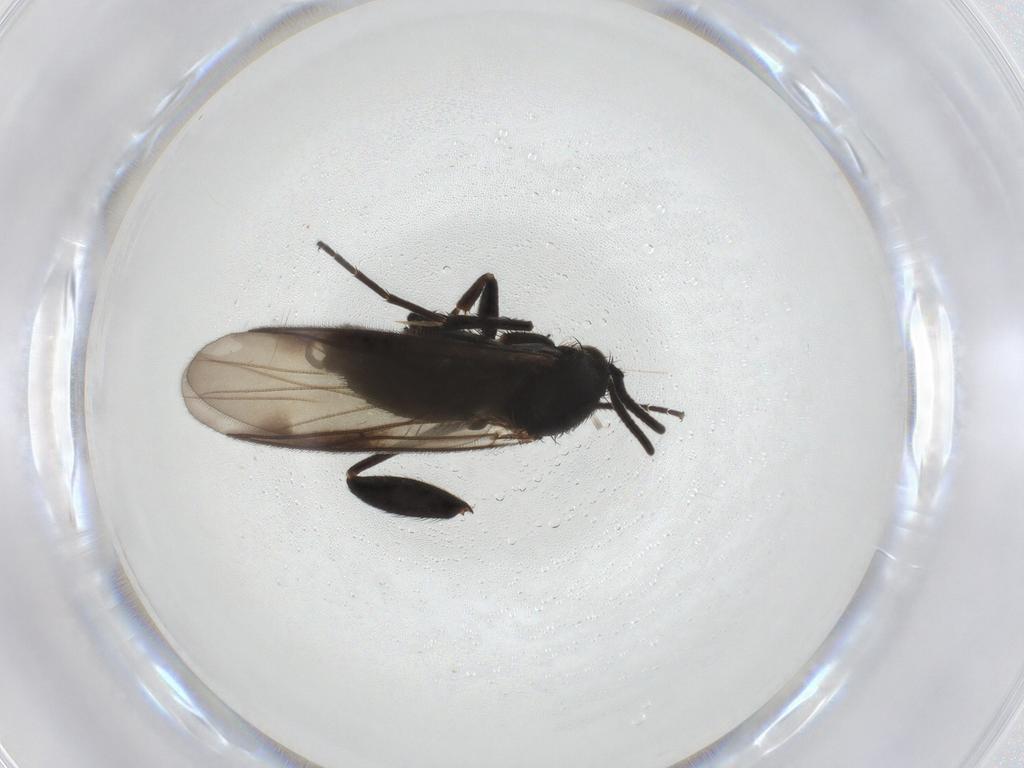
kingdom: Animalia
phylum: Arthropoda
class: Insecta
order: Diptera
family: Mycetophilidae
